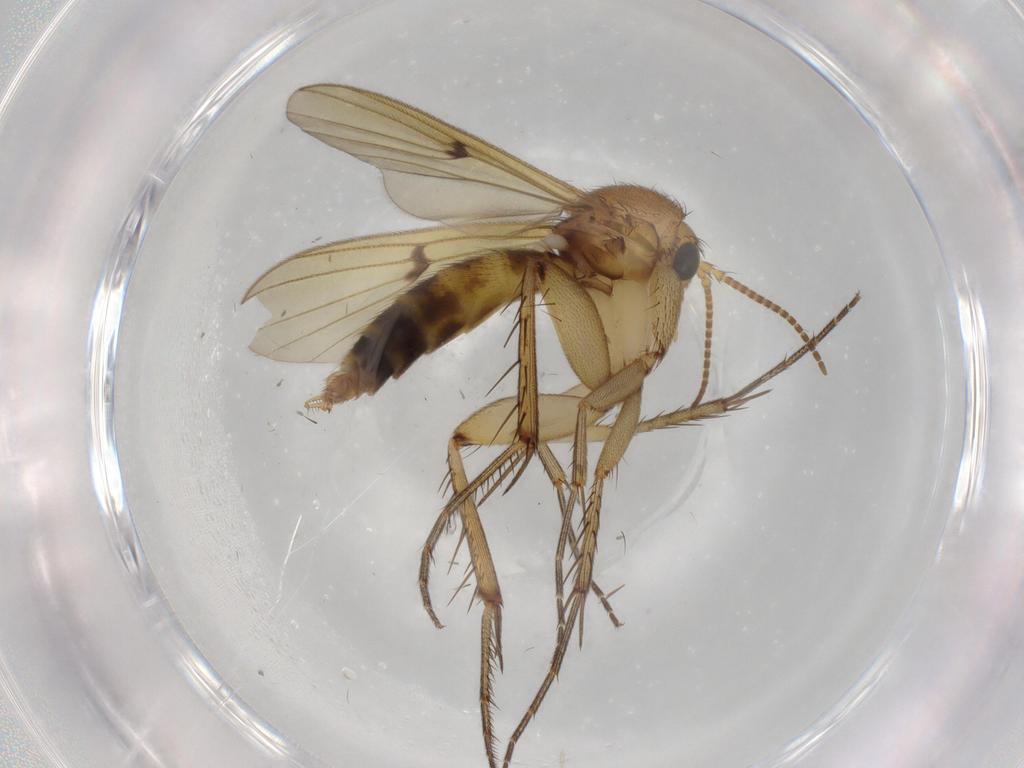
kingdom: Animalia
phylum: Arthropoda
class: Insecta
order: Diptera
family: Mycetophilidae
